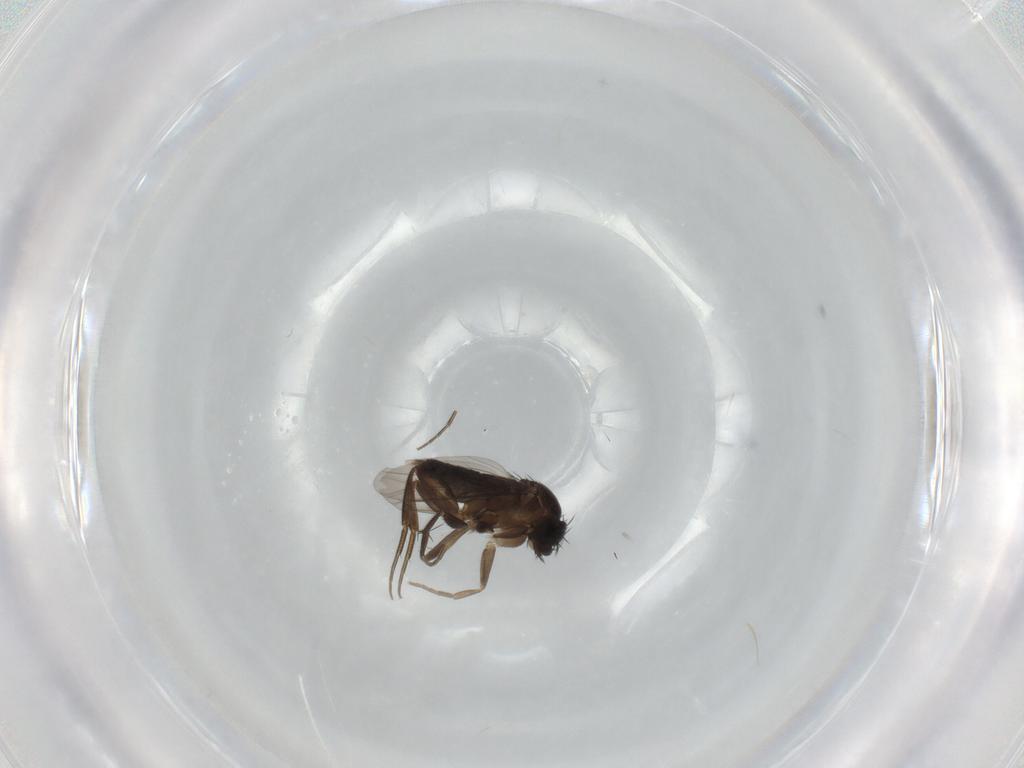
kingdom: Animalia
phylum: Arthropoda
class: Insecta
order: Diptera
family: Phoridae
